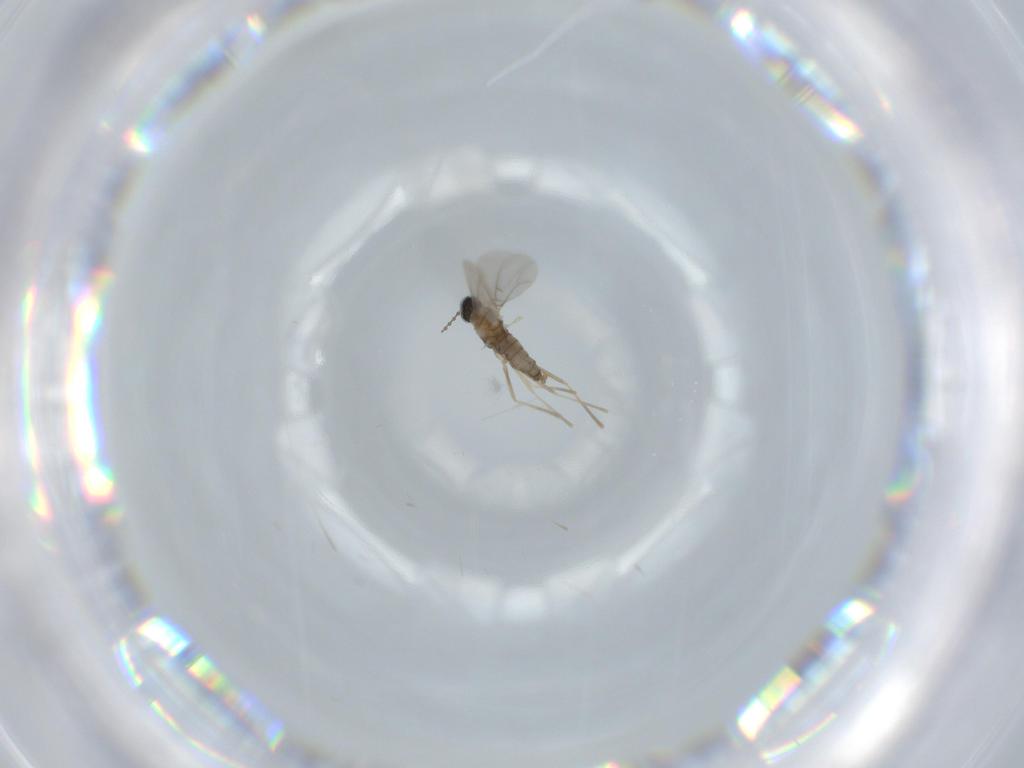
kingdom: Animalia
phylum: Arthropoda
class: Insecta
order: Diptera
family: Cecidomyiidae
